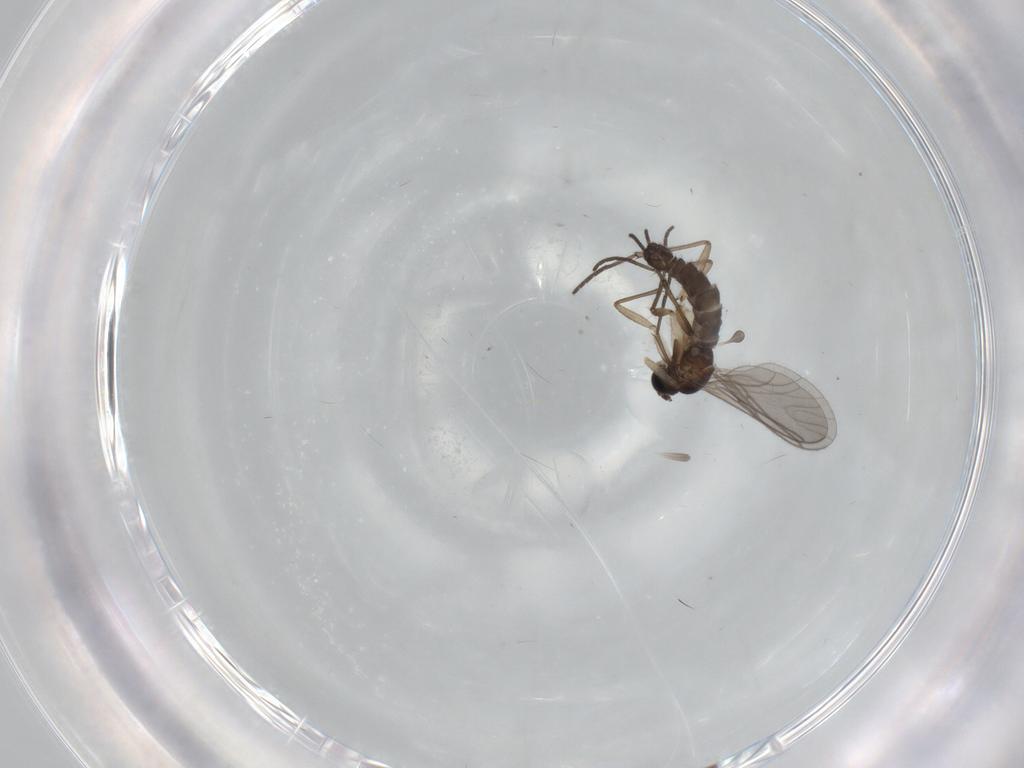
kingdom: Animalia
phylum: Arthropoda
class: Insecta
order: Diptera
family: Sciaridae
